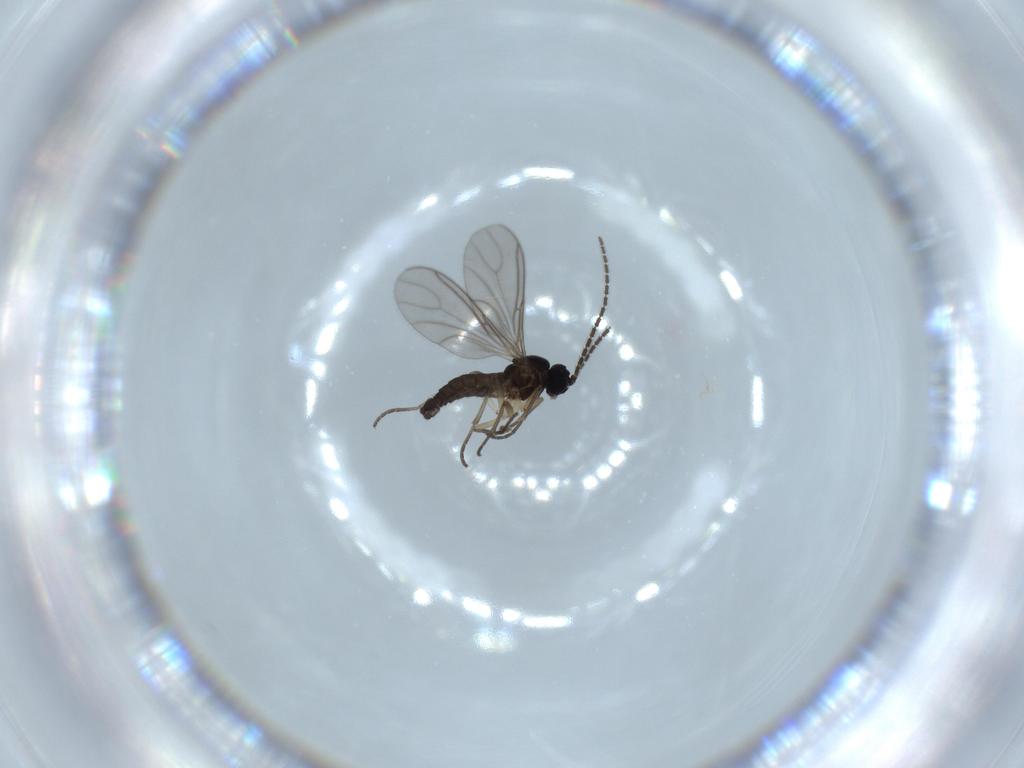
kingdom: Animalia
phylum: Arthropoda
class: Insecta
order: Diptera
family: Sciaridae
